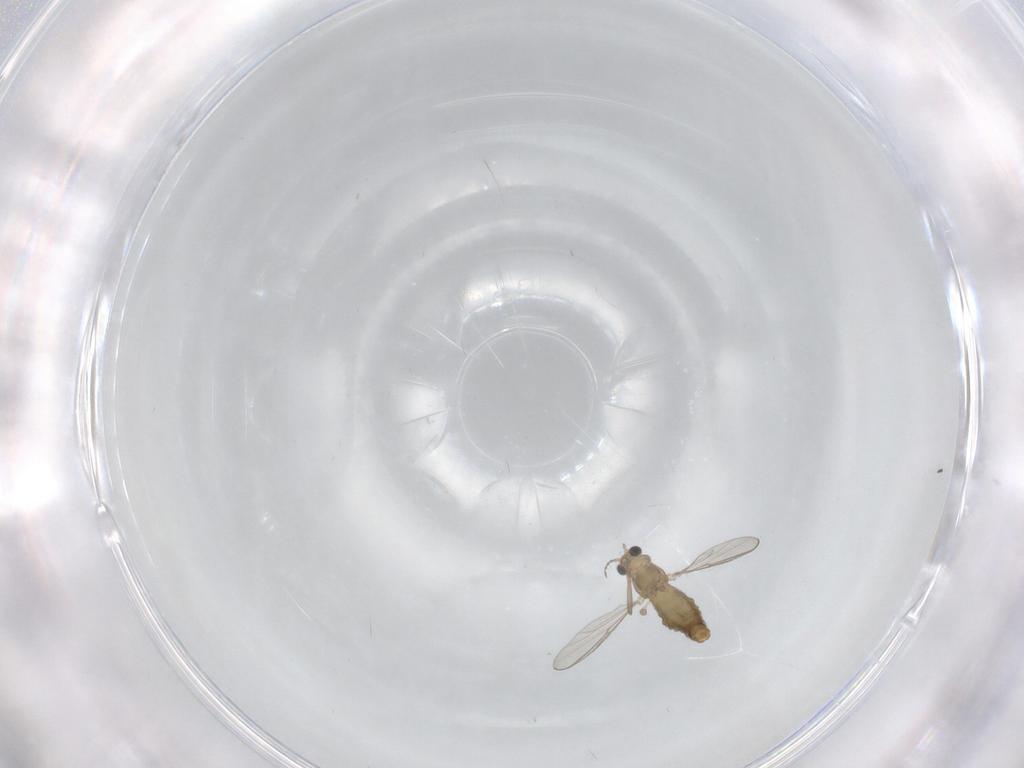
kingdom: Animalia
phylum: Arthropoda
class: Insecta
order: Diptera
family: Chironomidae
